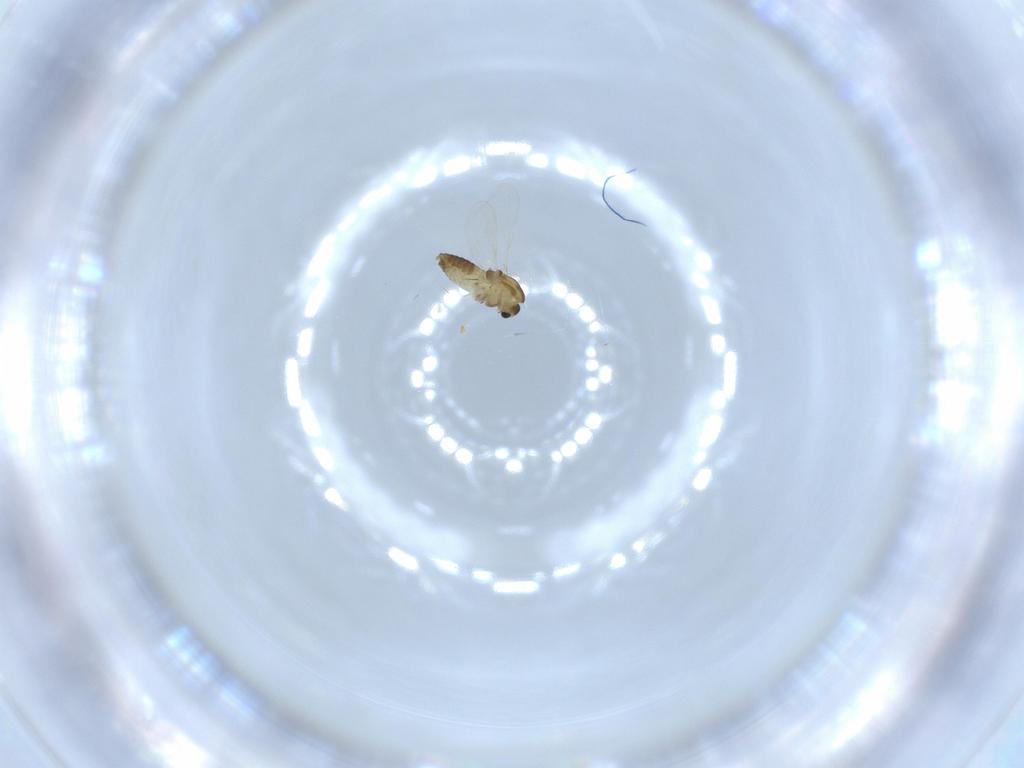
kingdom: Animalia
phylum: Arthropoda
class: Insecta
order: Diptera
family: Chironomidae
